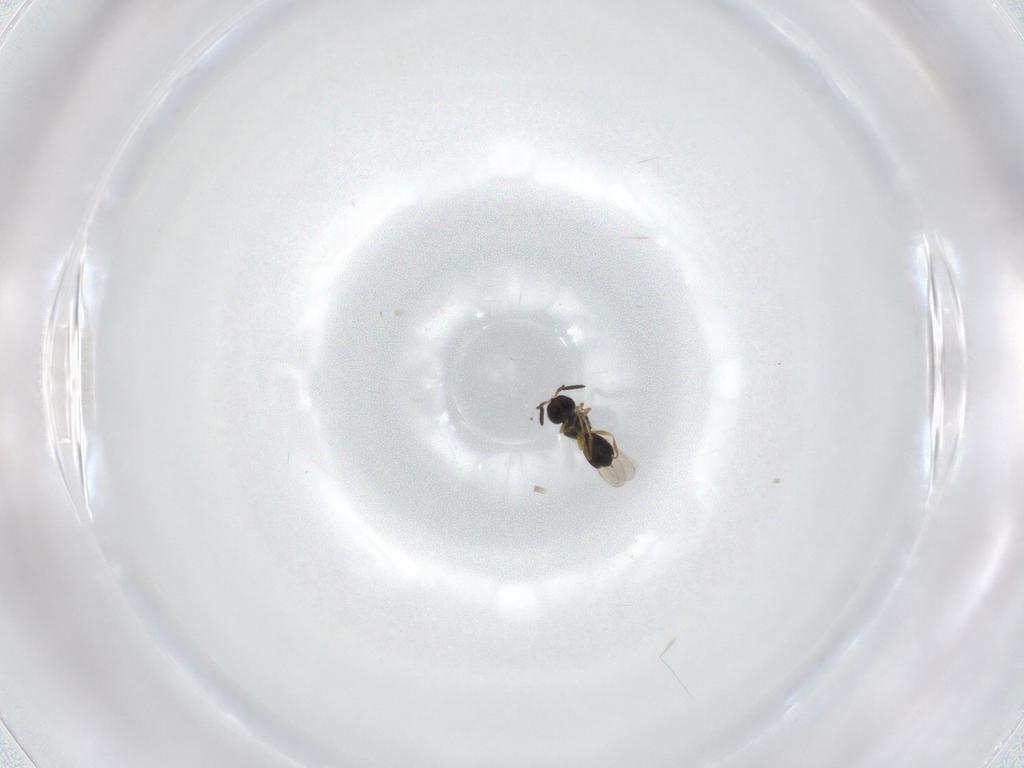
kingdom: Animalia
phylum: Arthropoda
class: Insecta
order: Hymenoptera
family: Scelionidae
